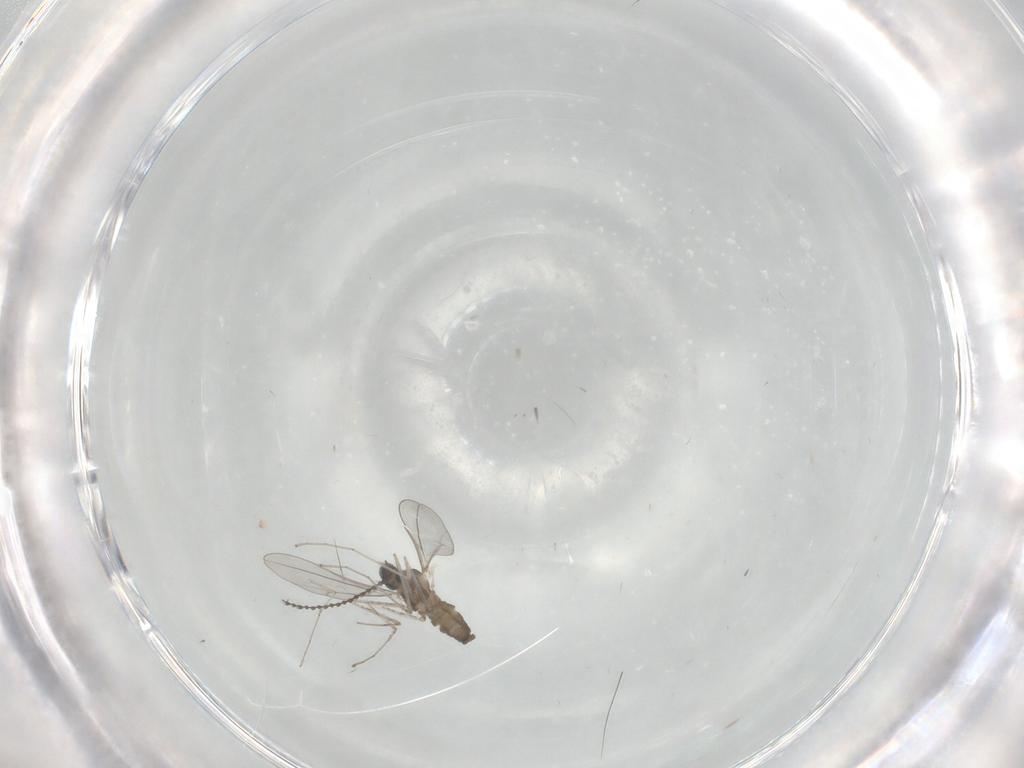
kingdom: Animalia
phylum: Arthropoda
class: Insecta
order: Diptera
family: Cecidomyiidae
